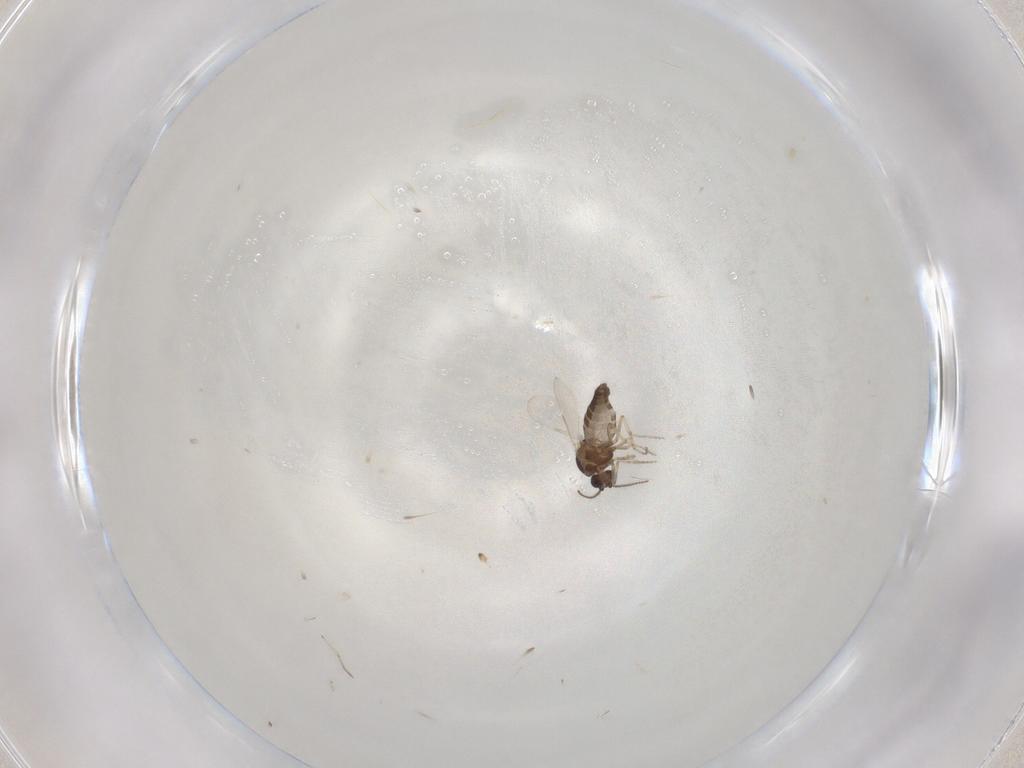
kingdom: Animalia
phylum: Arthropoda
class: Insecta
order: Diptera
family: Ceratopogonidae
